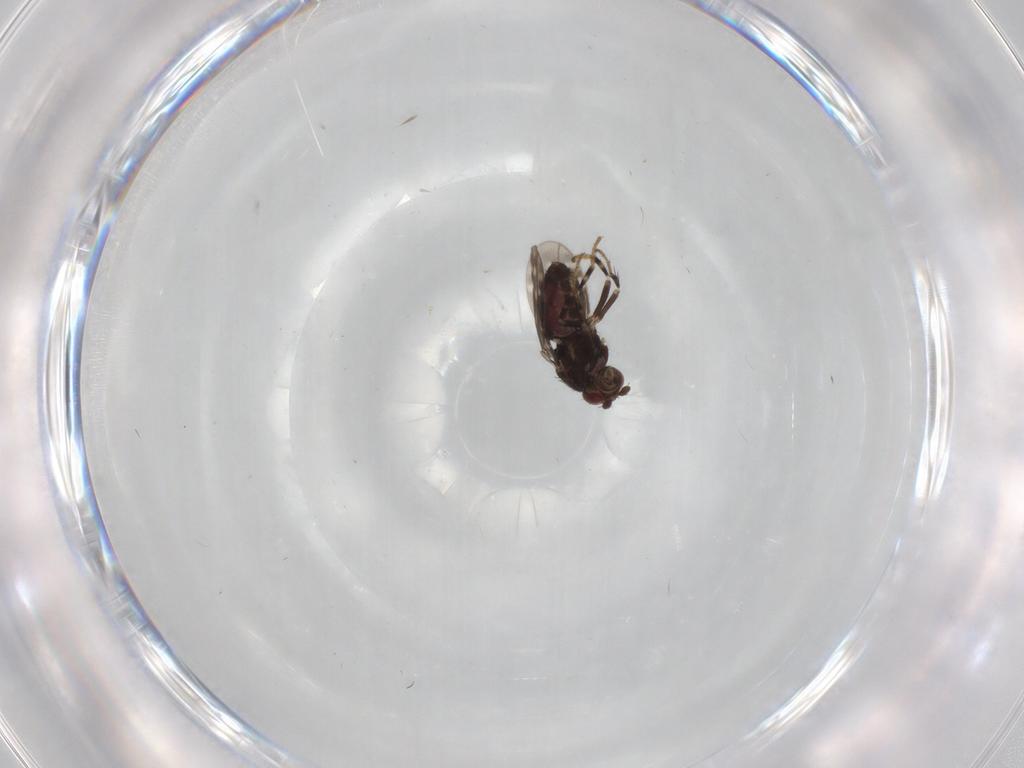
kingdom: Animalia
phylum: Arthropoda
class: Insecta
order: Diptera
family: Sphaeroceridae
